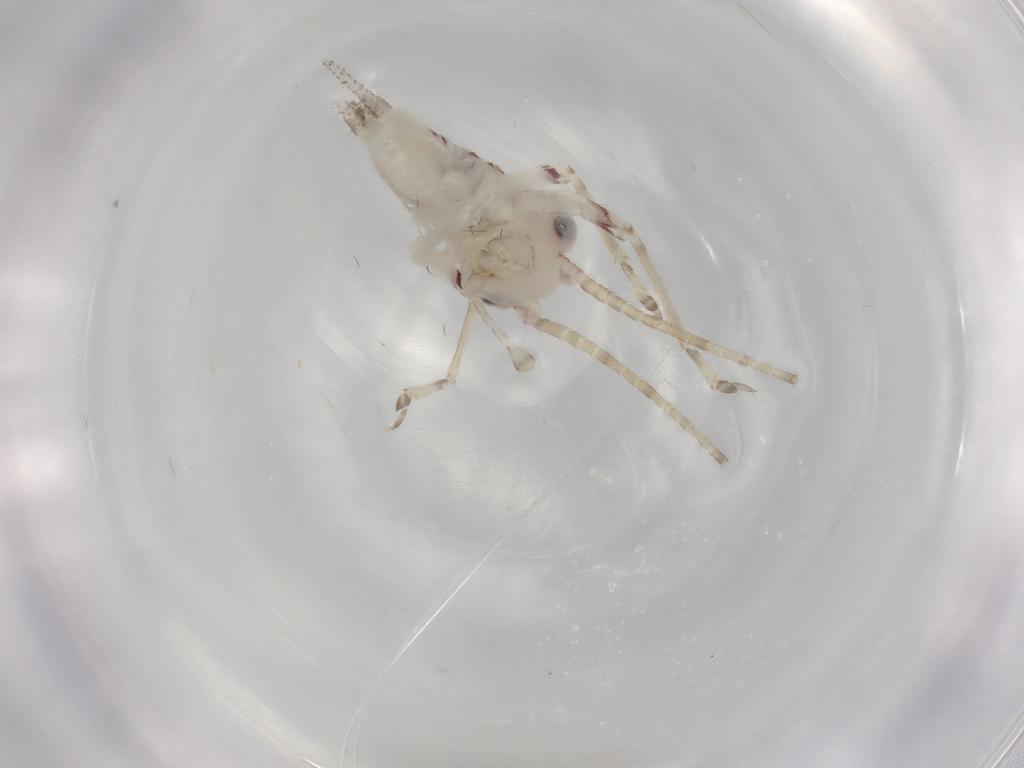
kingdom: Animalia
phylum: Arthropoda
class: Insecta
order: Orthoptera
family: Trigonidiidae
